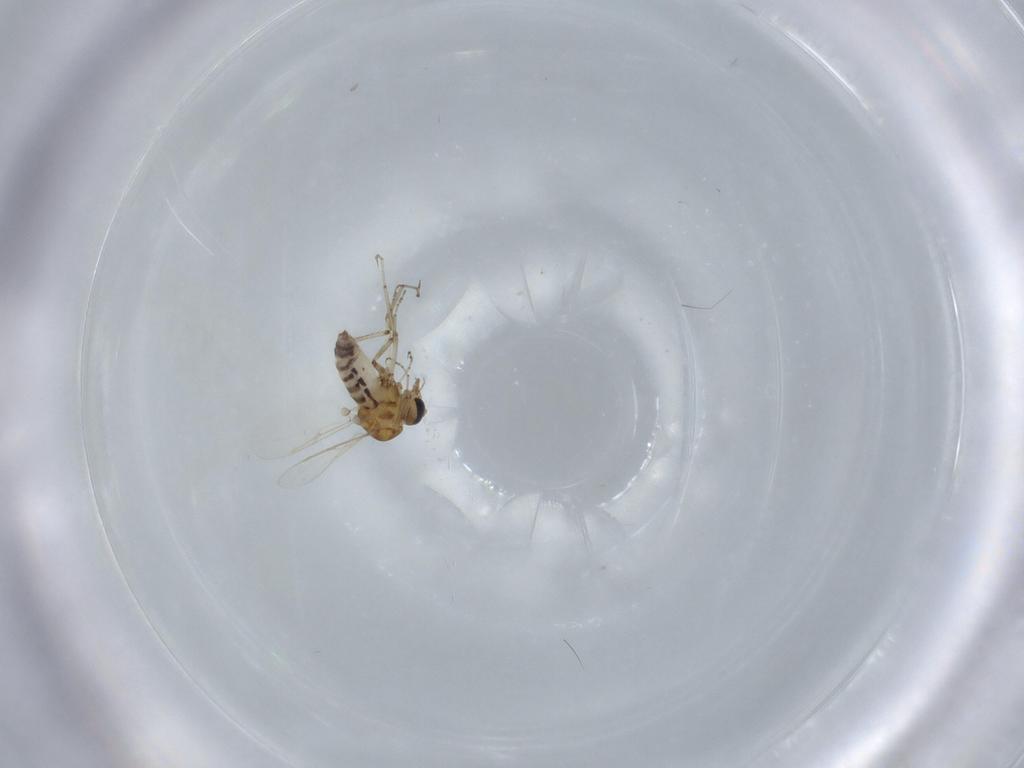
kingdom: Animalia
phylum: Arthropoda
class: Insecta
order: Diptera
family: Ceratopogonidae
